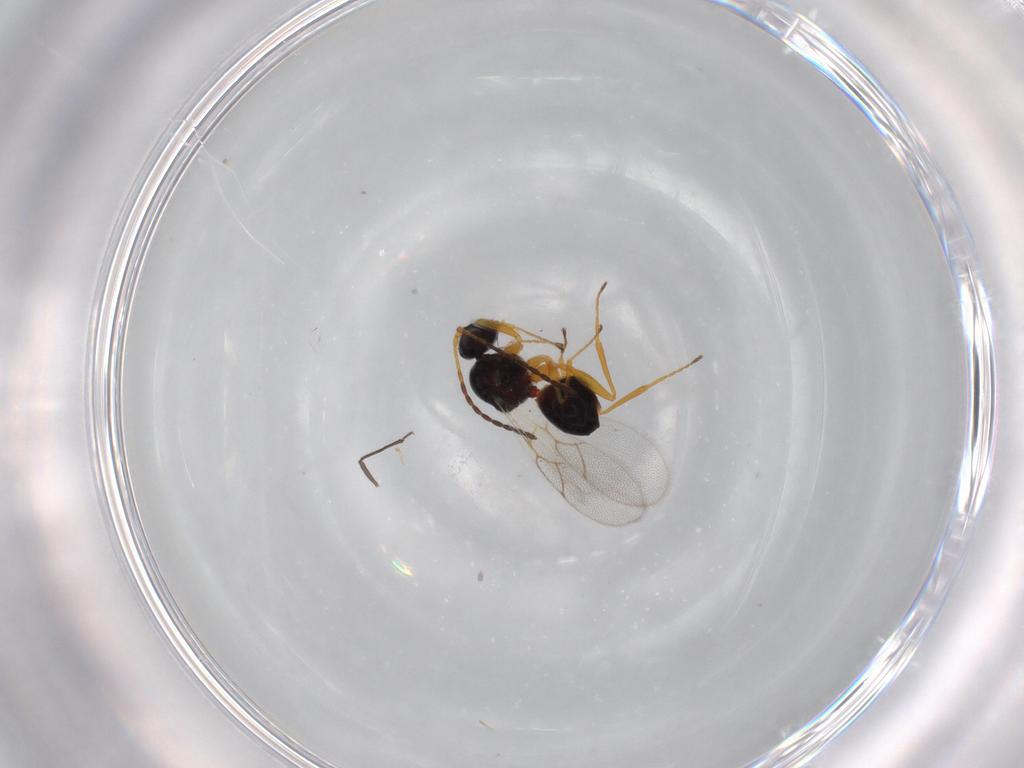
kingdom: Animalia
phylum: Arthropoda
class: Insecta
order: Hymenoptera
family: Figitidae
